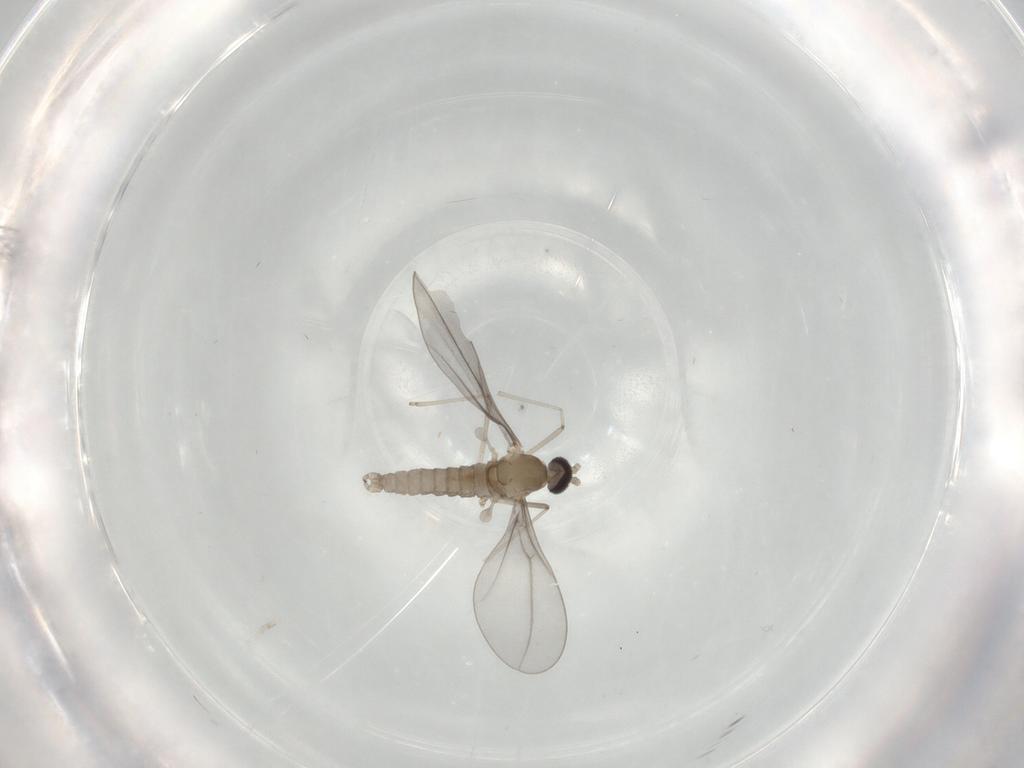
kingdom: Animalia
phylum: Arthropoda
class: Insecta
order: Diptera
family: Cecidomyiidae
